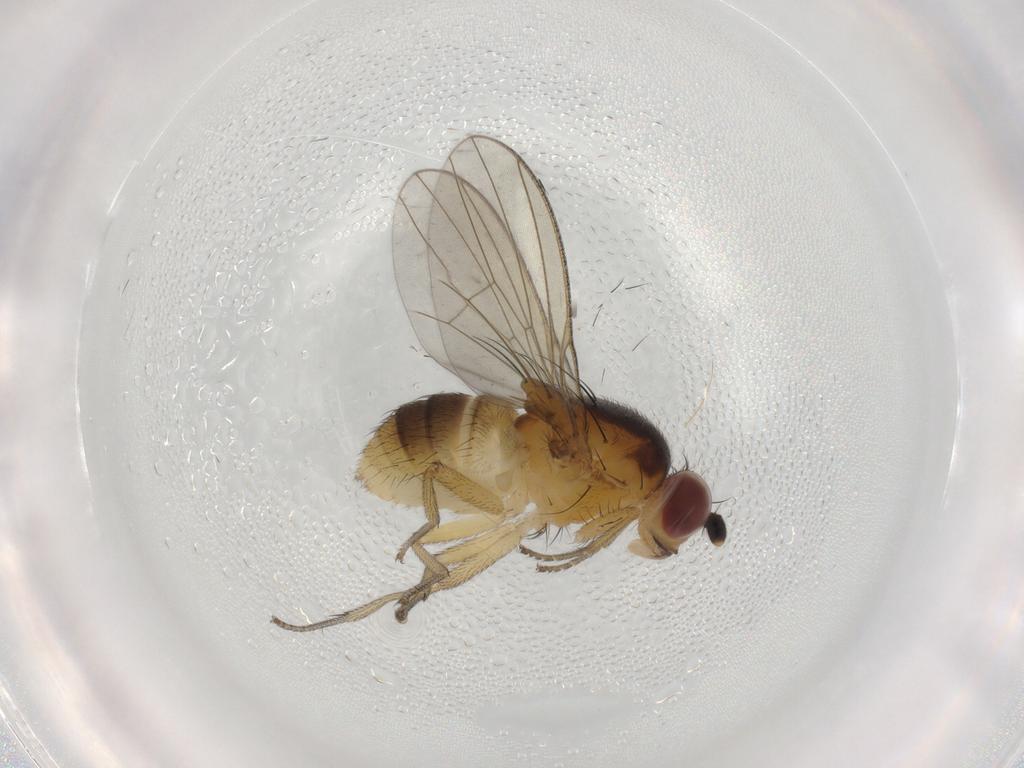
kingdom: Animalia
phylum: Arthropoda
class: Insecta
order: Diptera
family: Lauxaniidae
